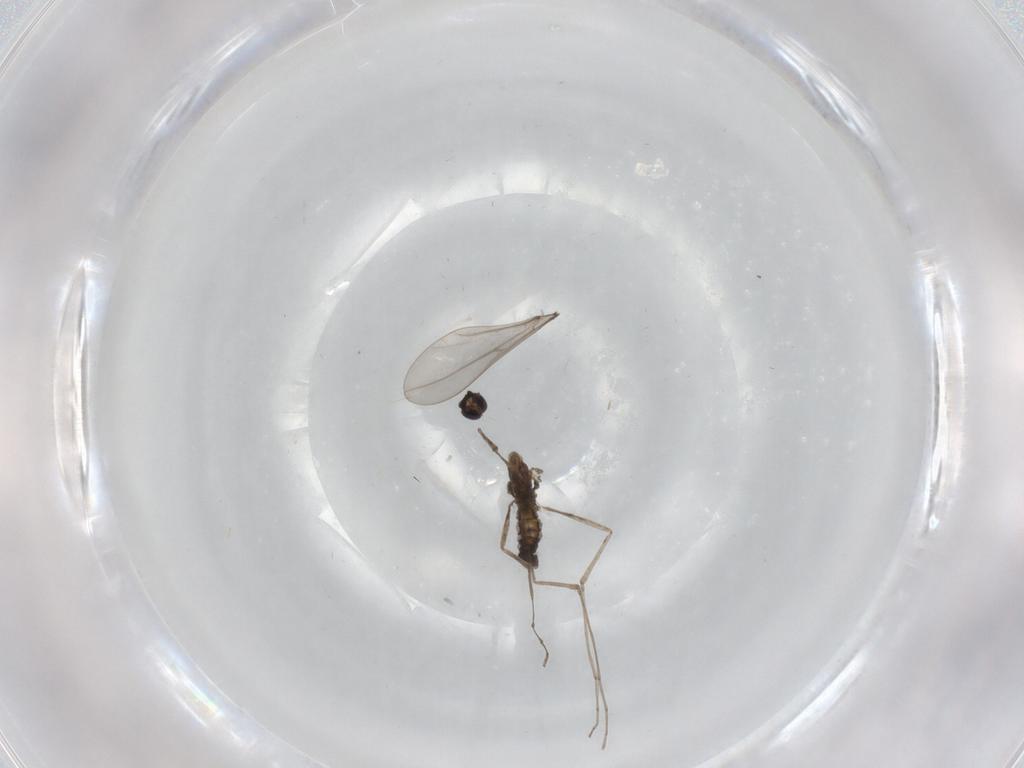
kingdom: Animalia
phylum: Arthropoda
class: Insecta
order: Diptera
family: Sciaridae
